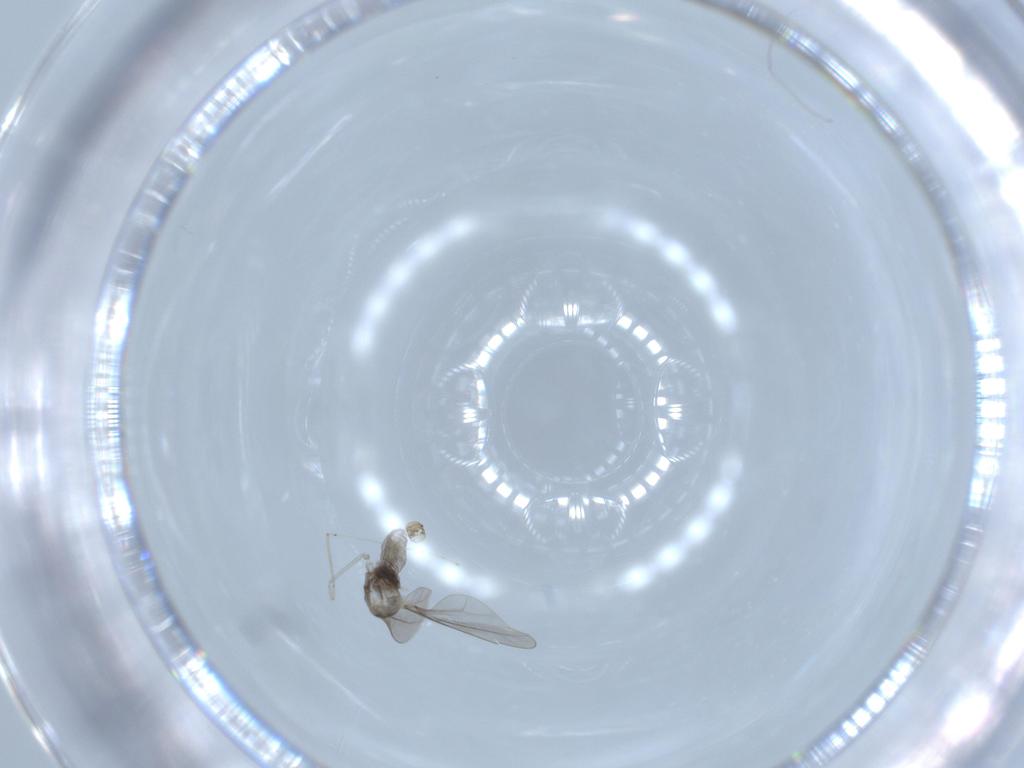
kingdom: Animalia
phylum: Arthropoda
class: Insecta
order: Diptera
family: Cecidomyiidae
